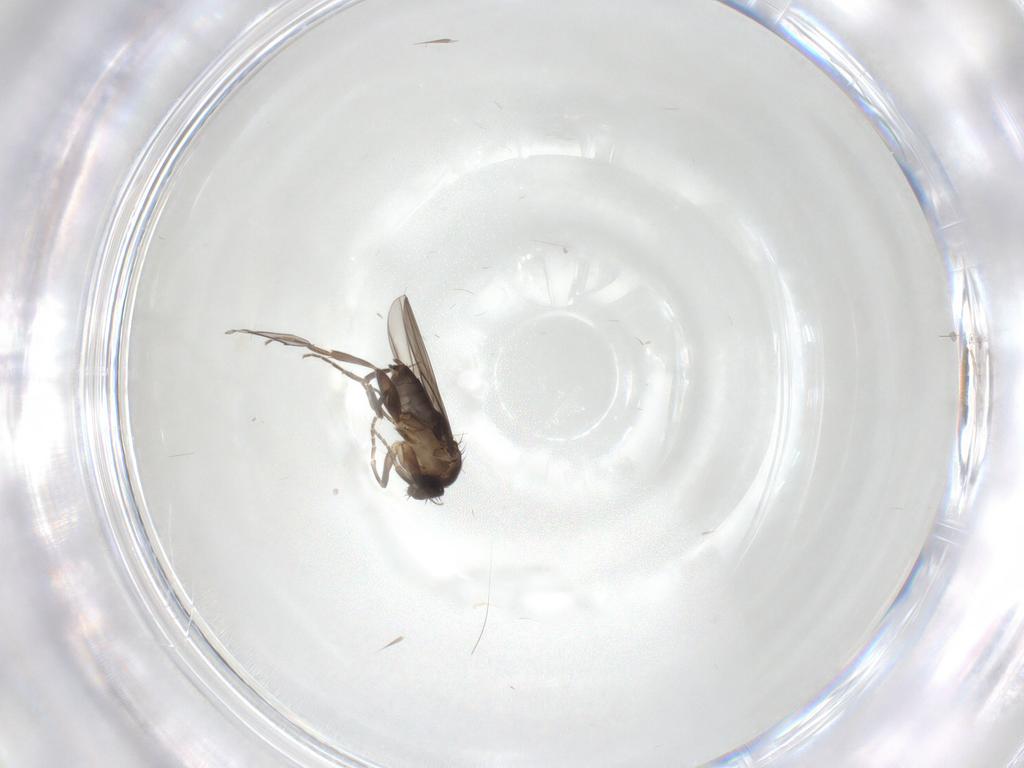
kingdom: Animalia
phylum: Arthropoda
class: Insecta
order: Diptera
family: Phoridae
